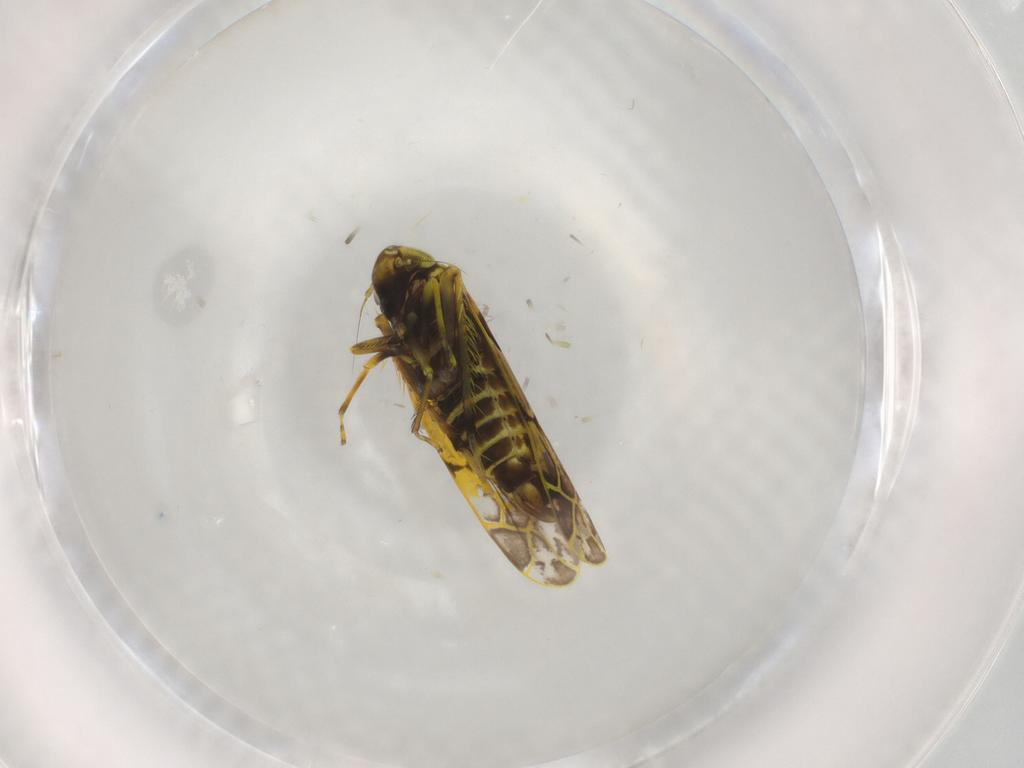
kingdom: Animalia
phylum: Arthropoda
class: Insecta
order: Hemiptera
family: Cicadellidae
